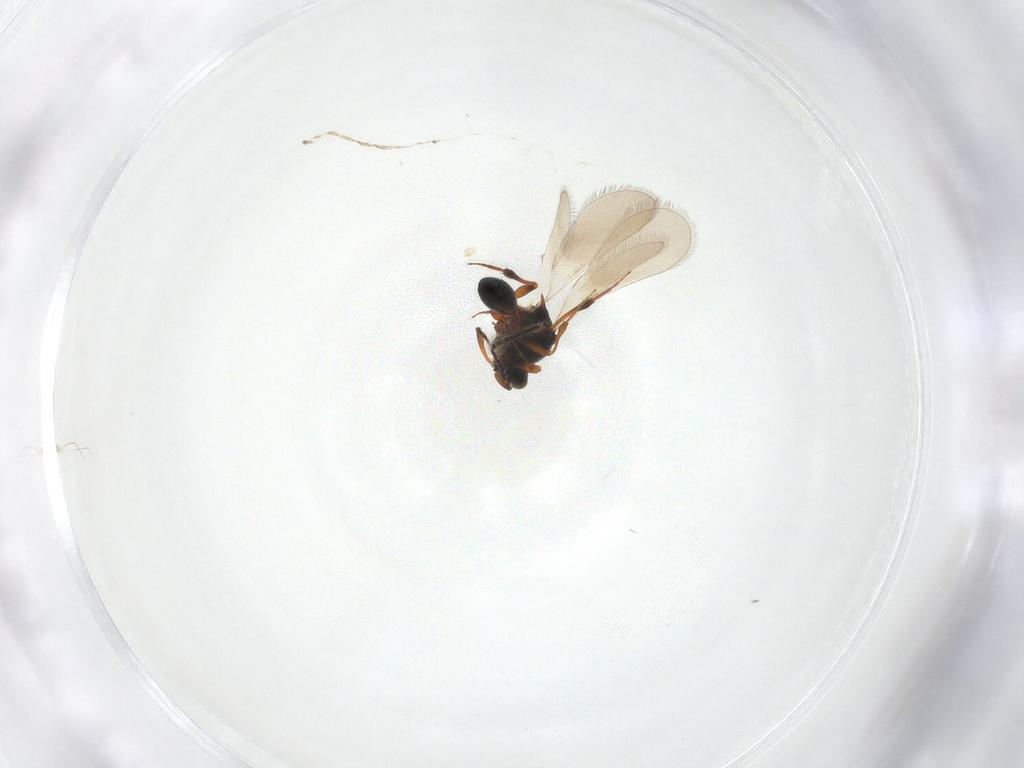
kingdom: Animalia
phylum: Arthropoda
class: Insecta
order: Hymenoptera
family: Platygastridae
